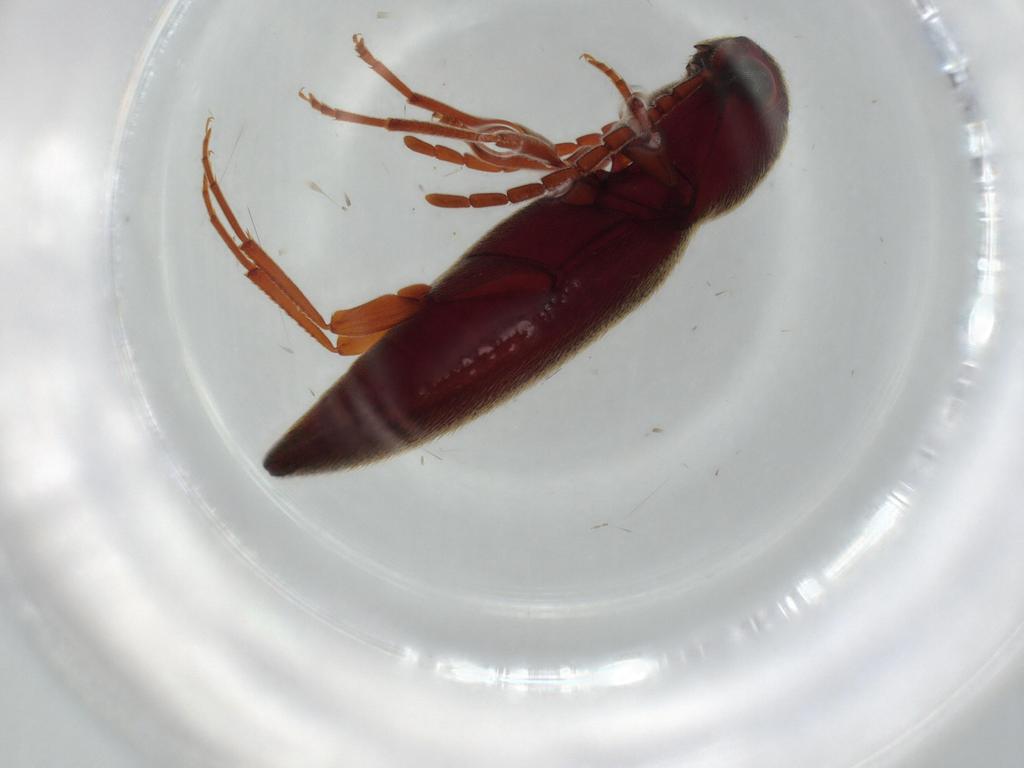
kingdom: Animalia
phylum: Arthropoda
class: Insecta
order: Coleoptera
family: Eucnemidae
